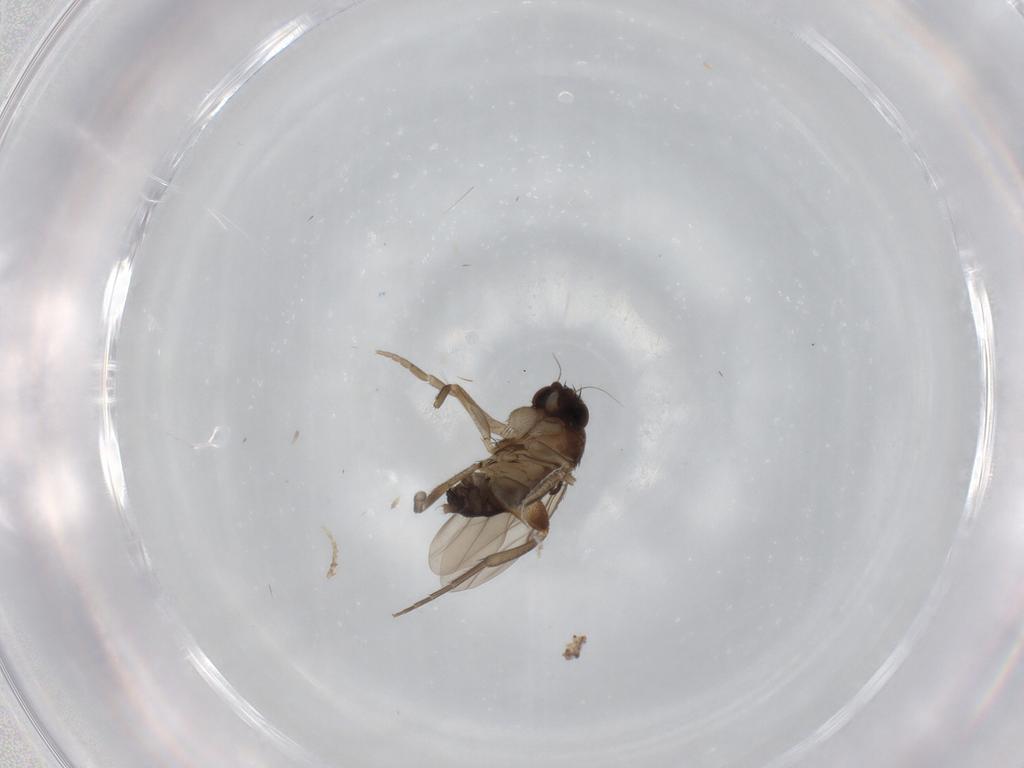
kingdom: Animalia
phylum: Arthropoda
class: Insecta
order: Diptera
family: Phoridae
